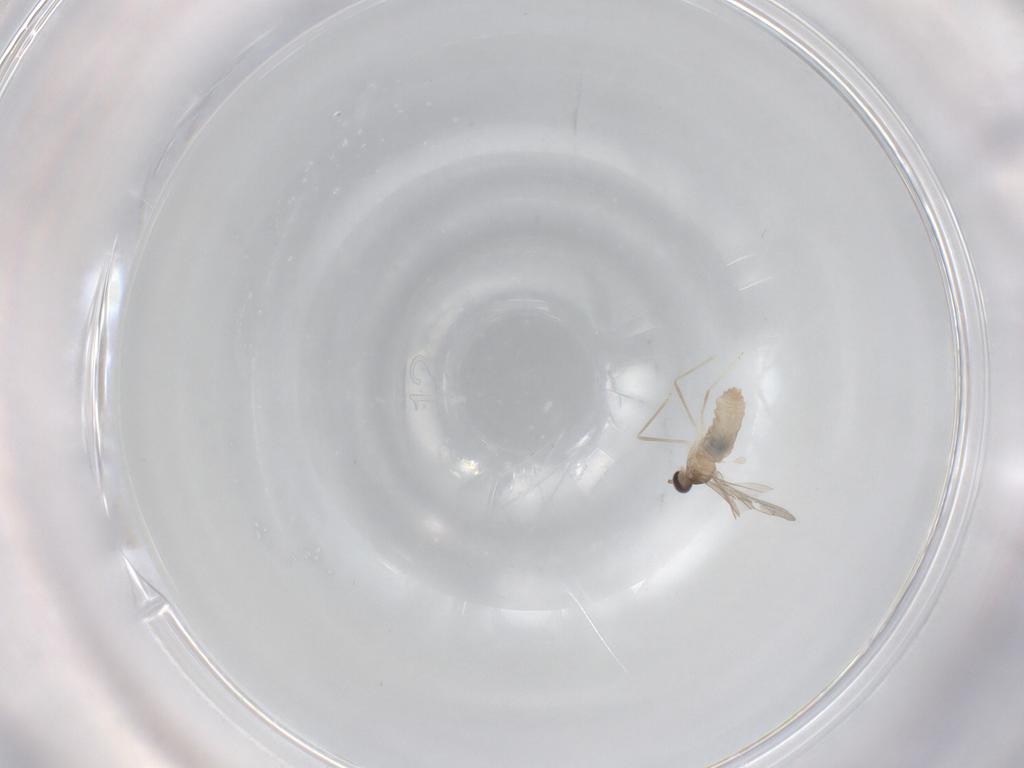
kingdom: Animalia
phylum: Arthropoda
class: Insecta
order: Diptera
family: Cecidomyiidae
